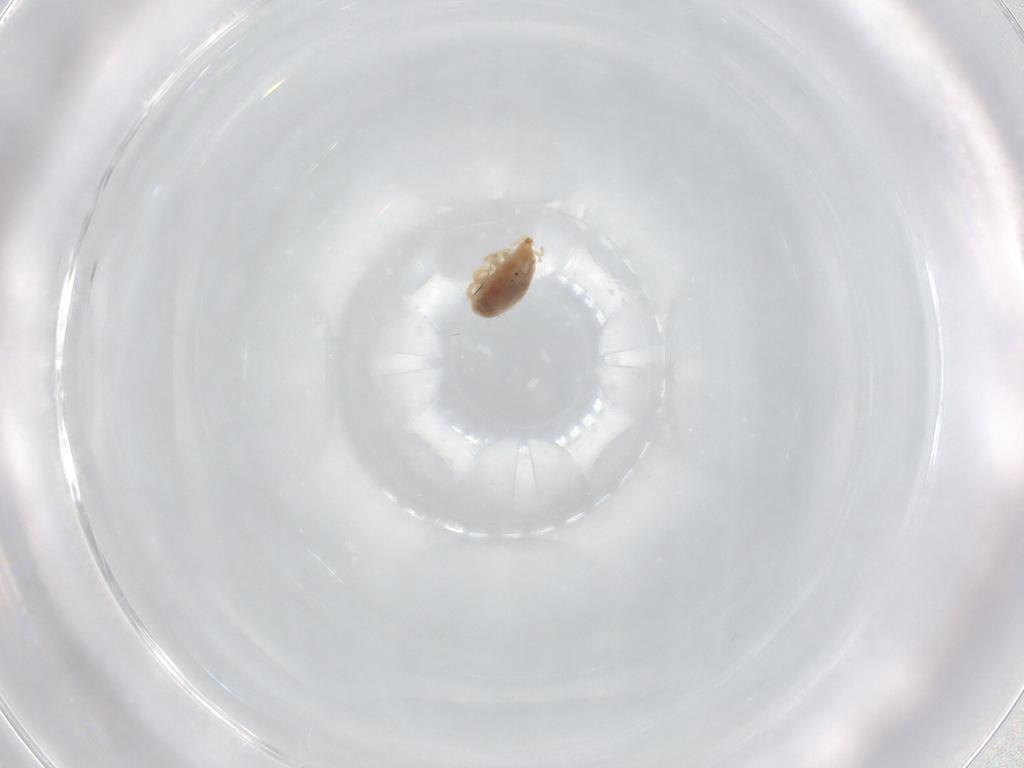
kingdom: Animalia
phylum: Arthropoda
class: Arachnida
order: Trombidiformes
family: Bdellidae
